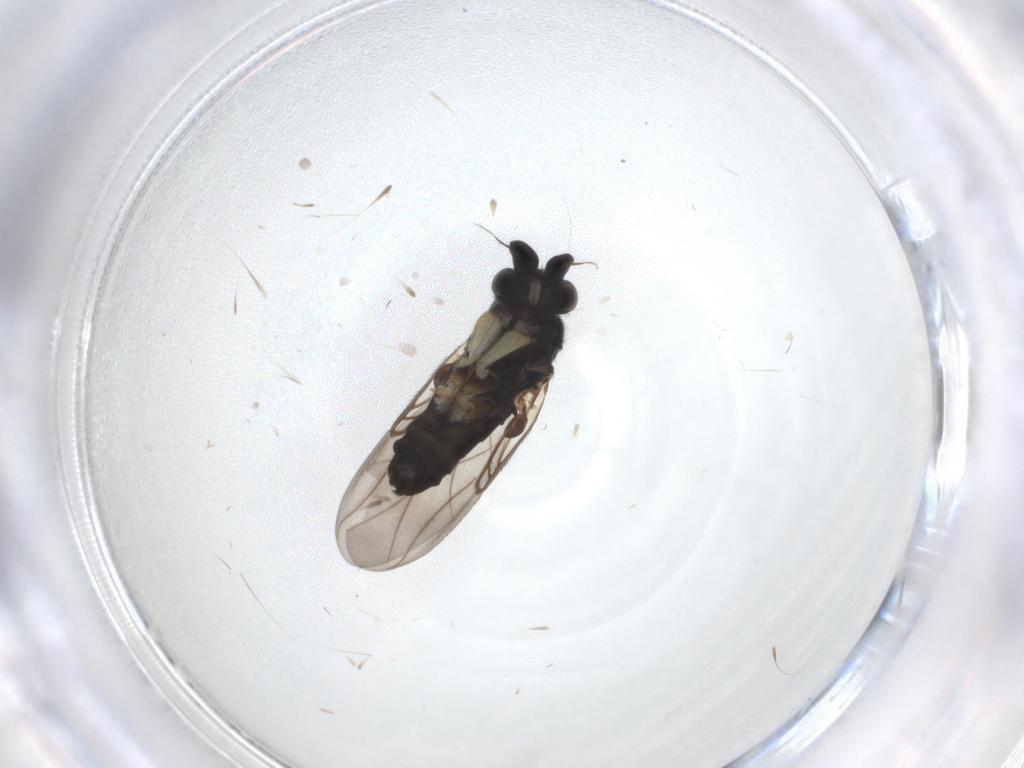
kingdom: Animalia
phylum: Arthropoda
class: Insecta
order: Diptera
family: Phoridae
